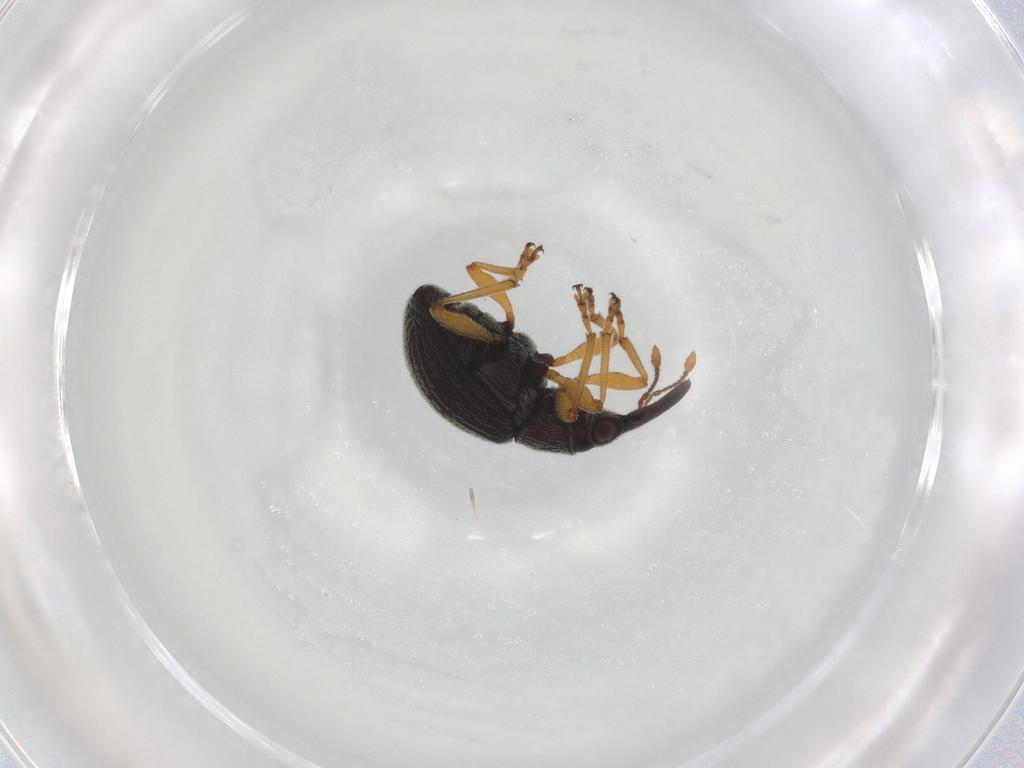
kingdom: Animalia
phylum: Arthropoda
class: Insecta
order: Coleoptera
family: Brentidae
